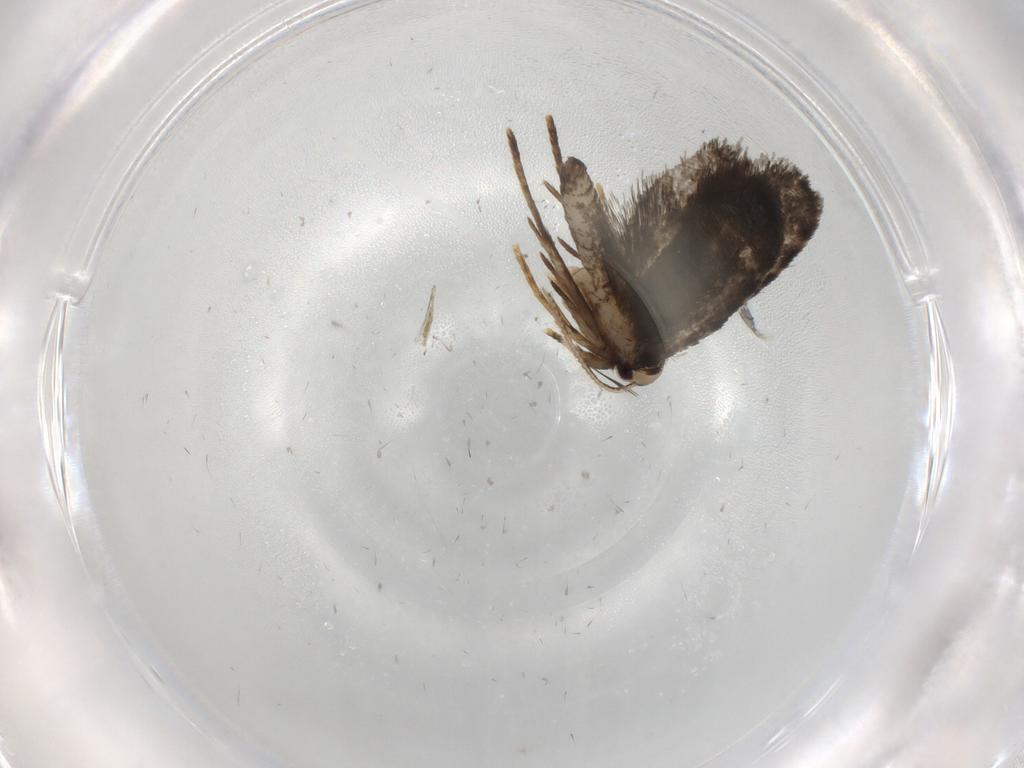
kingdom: Animalia
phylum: Arthropoda
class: Insecta
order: Lepidoptera
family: Psychidae
